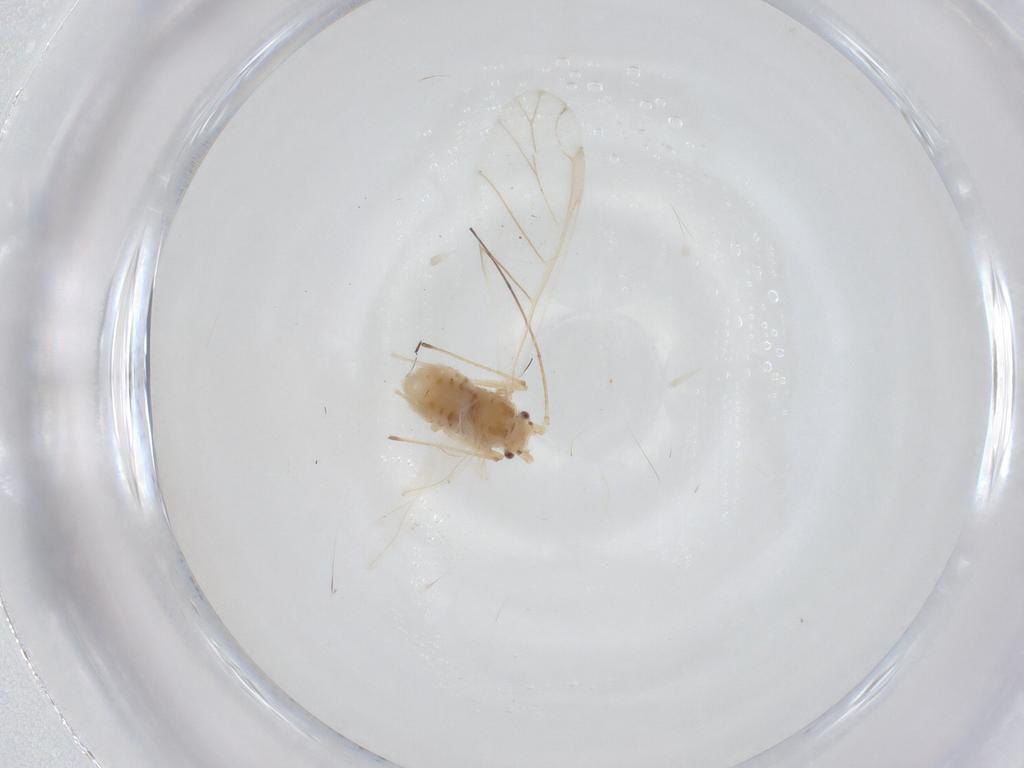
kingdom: Animalia
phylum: Arthropoda
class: Insecta
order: Hemiptera
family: Aphididae
